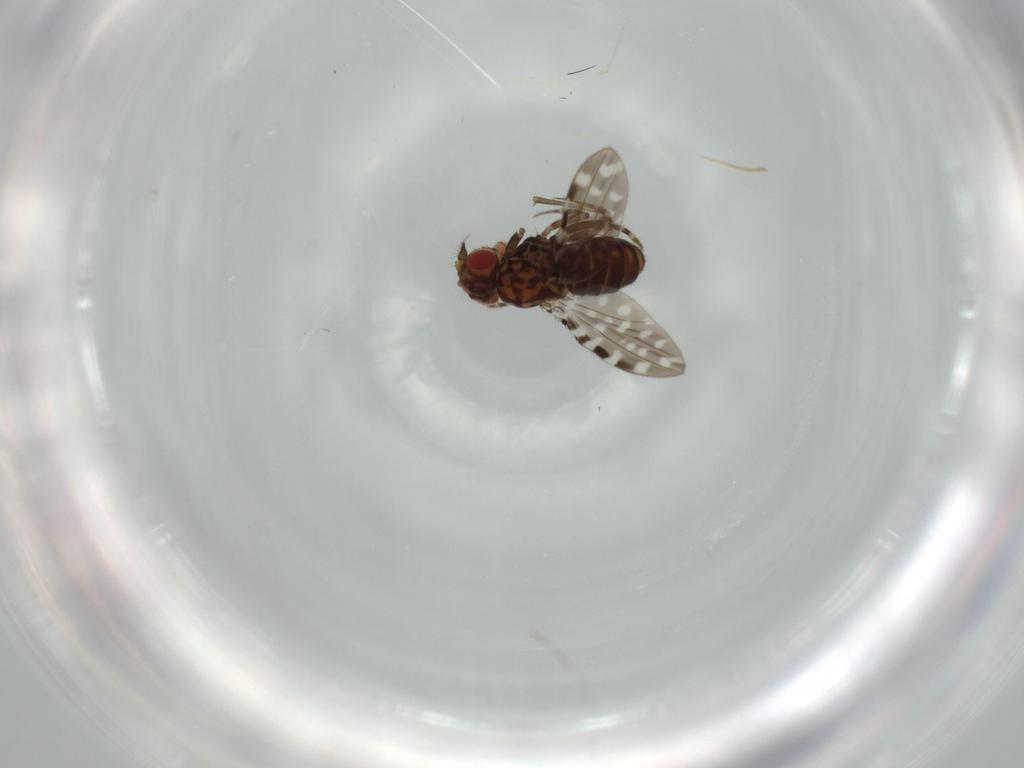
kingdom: Animalia
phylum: Arthropoda
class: Insecta
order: Diptera
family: Drosophilidae
